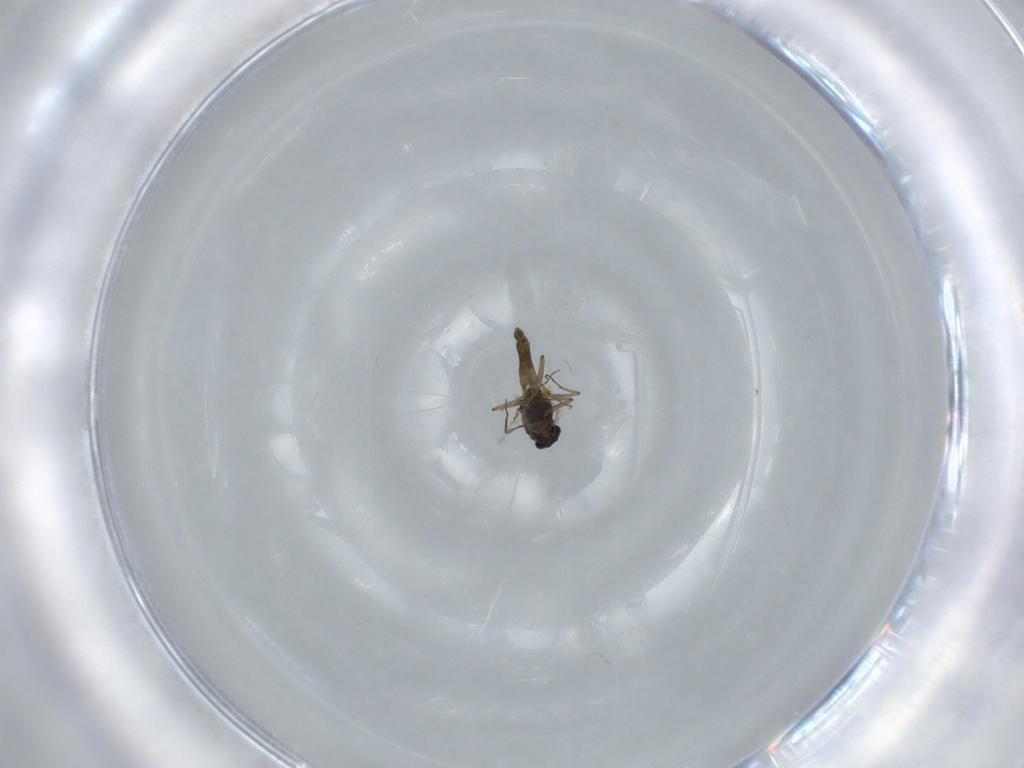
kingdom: Animalia
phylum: Arthropoda
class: Insecta
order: Diptera
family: Chironomidae
